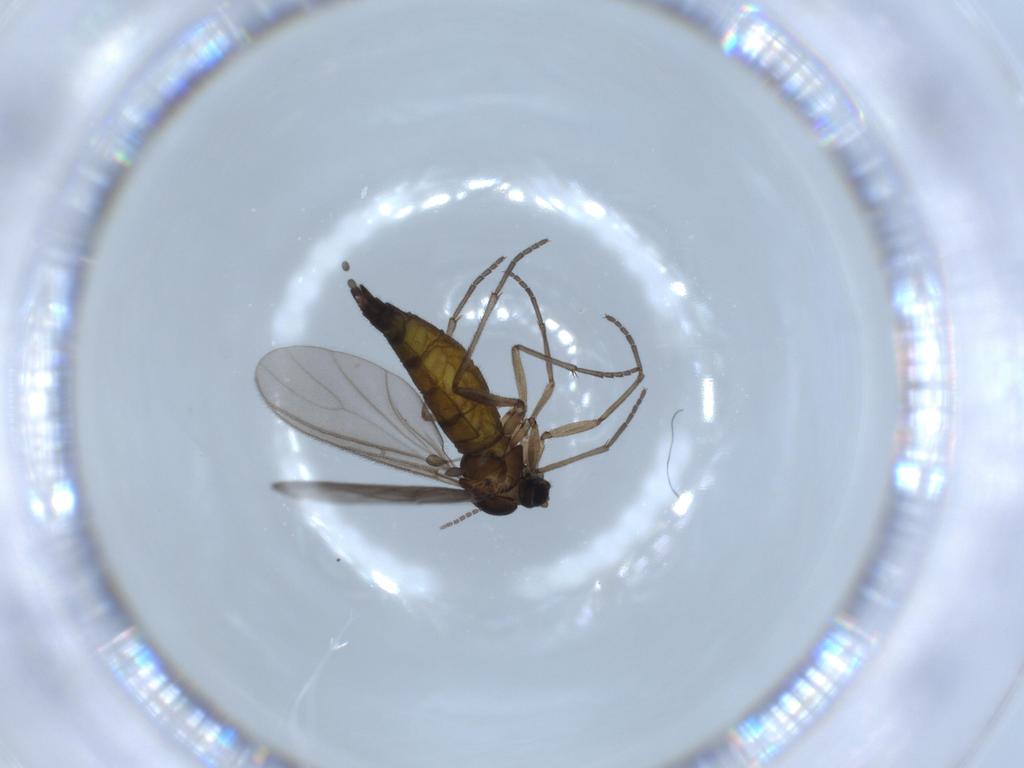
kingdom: Animalia
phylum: Arthropoda
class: Insecta
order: Diptera
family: Sciaridae
